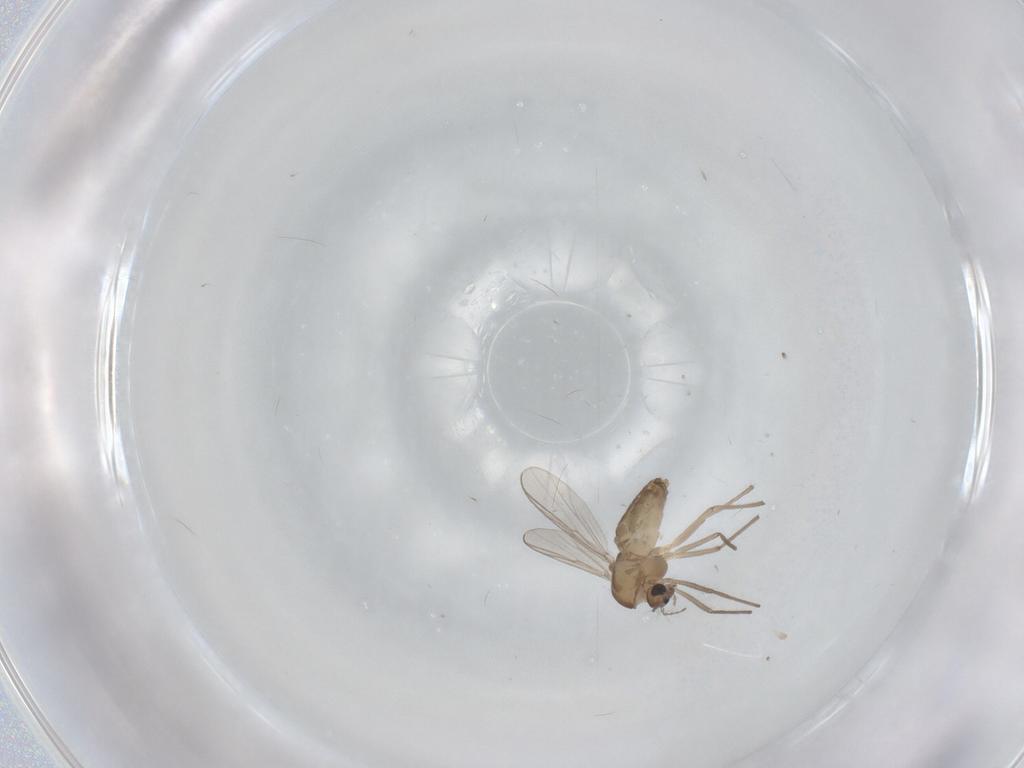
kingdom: Animalia
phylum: Arthropoda
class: Insecta
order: Diptera
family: Chironomidae
